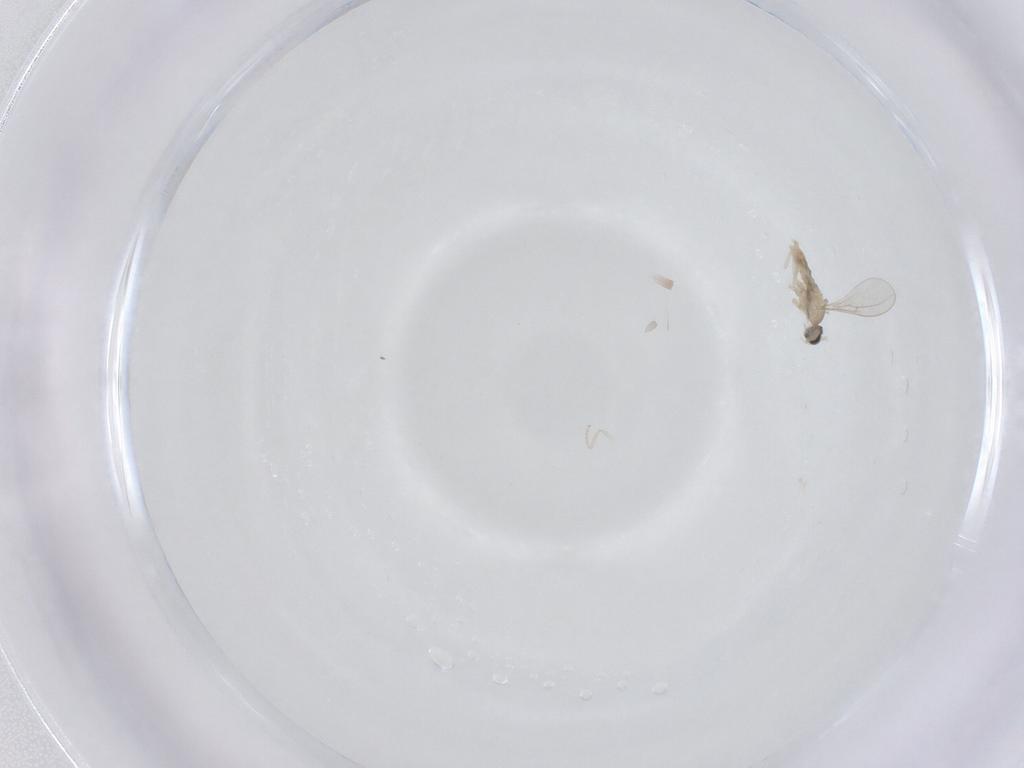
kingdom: Animalia
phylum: Arthropoda
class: Insecta
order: Diptera
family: Cecidomyiidae
